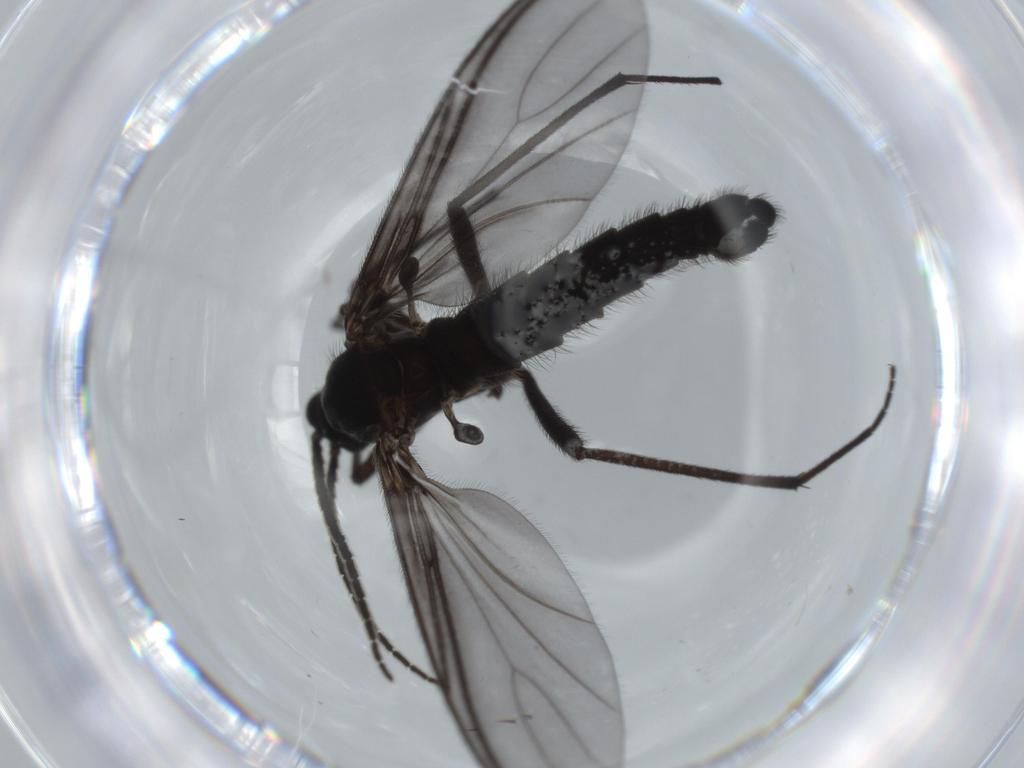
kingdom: Animalia
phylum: Arthropoda
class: Insecta
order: Diptera
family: Cecidomyiidae
